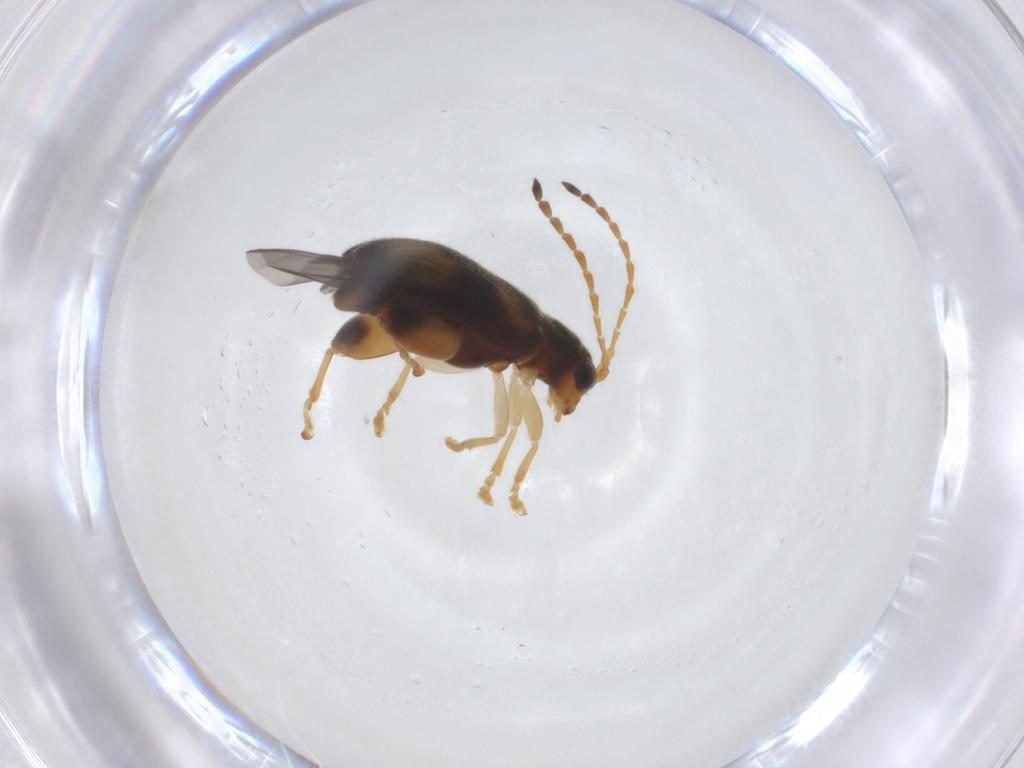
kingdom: Animalia
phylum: Arthropoda
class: Insecta
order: Coleoptera
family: Chrysomelidae
